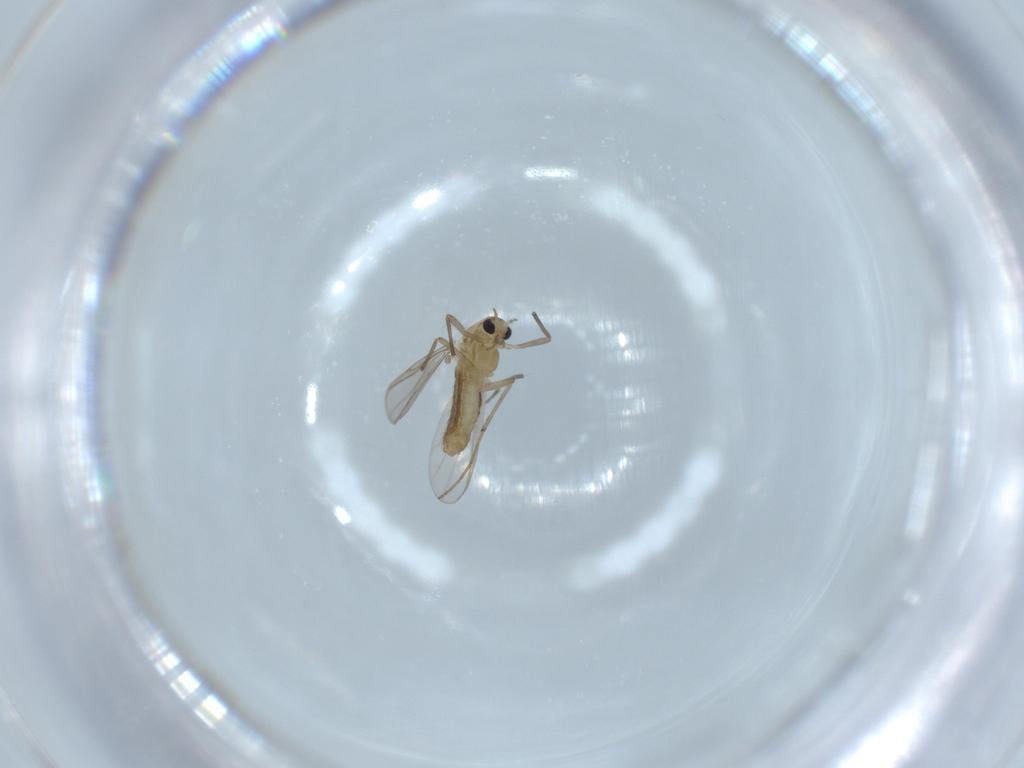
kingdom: Animalia
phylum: Arthropoda
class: Insecta
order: Diptera
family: Chironomidae
